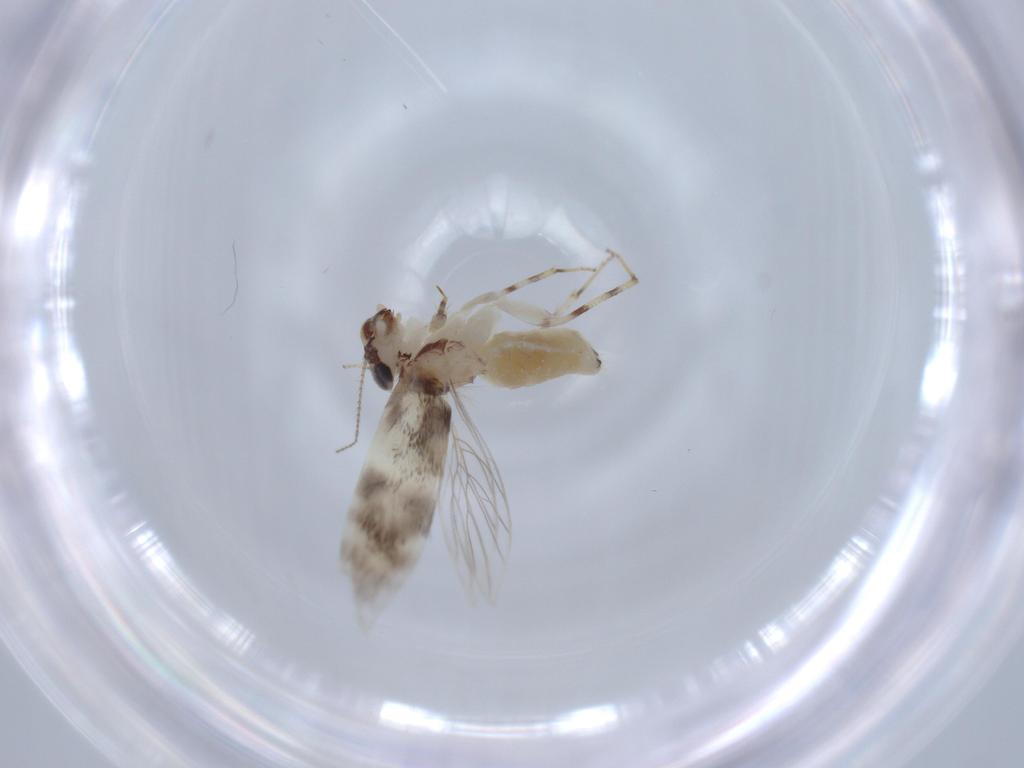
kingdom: Animalia
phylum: Arthropoda
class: Insecta
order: Psocodea
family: Lepidopsocidae
